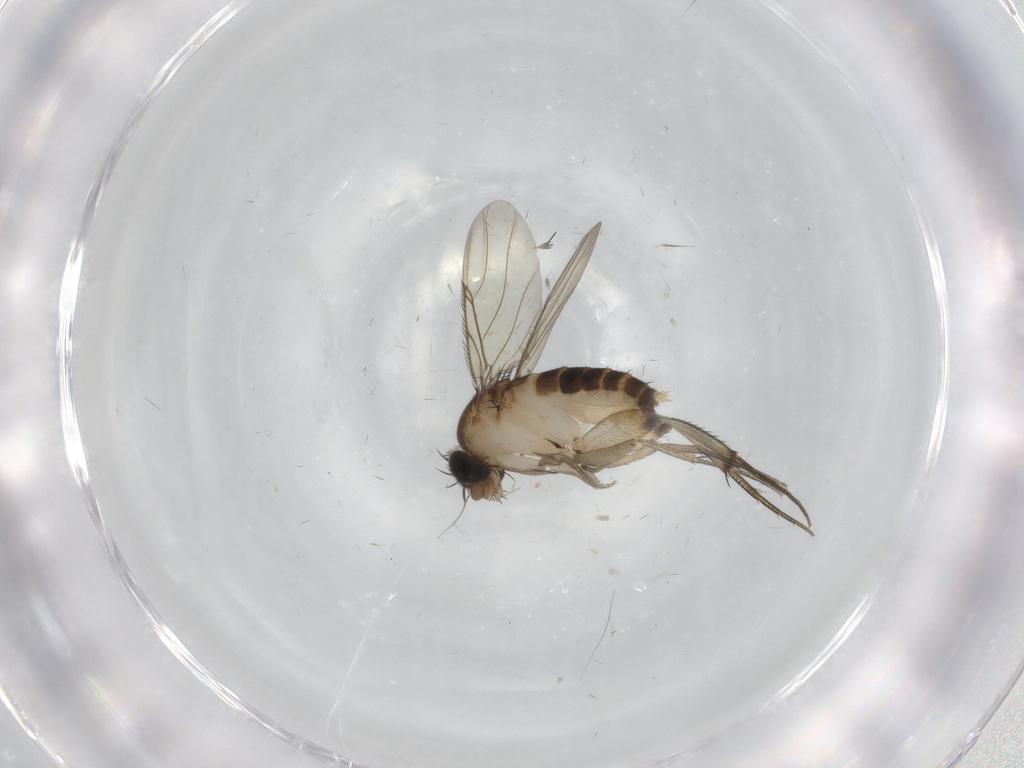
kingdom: Animalia
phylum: Arthropoda
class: Insecta
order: Diptera
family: Phoridae
